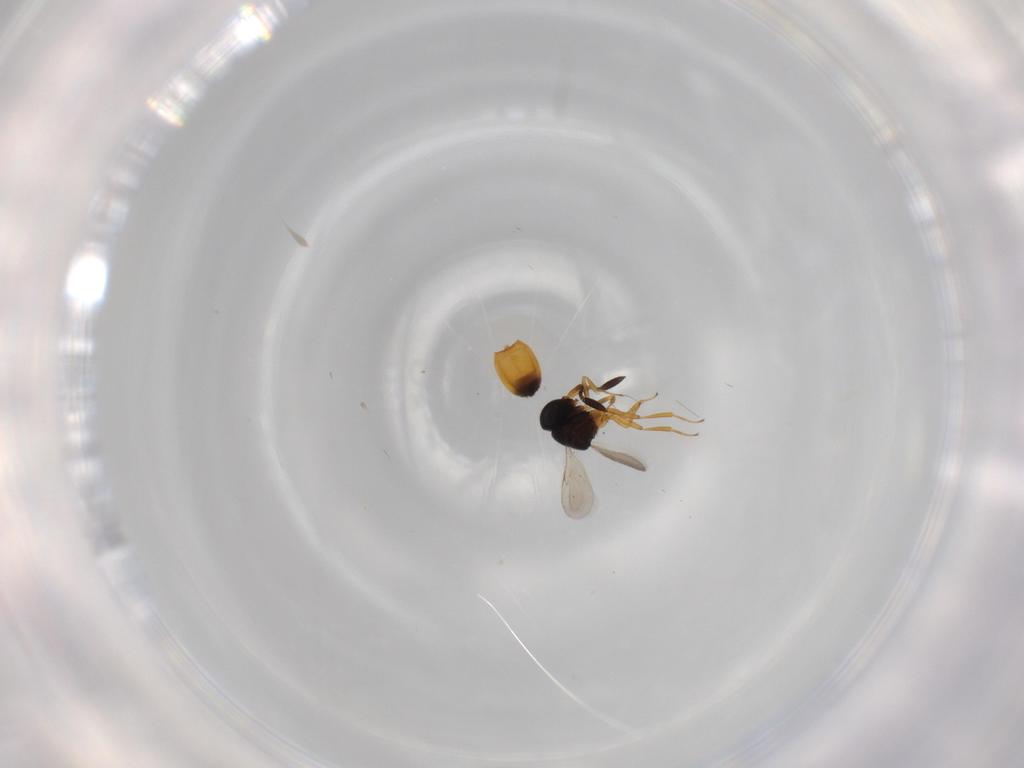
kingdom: Animalia
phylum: Arthropoda
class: Insecta
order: Hymenoptera
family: Scelionidae
